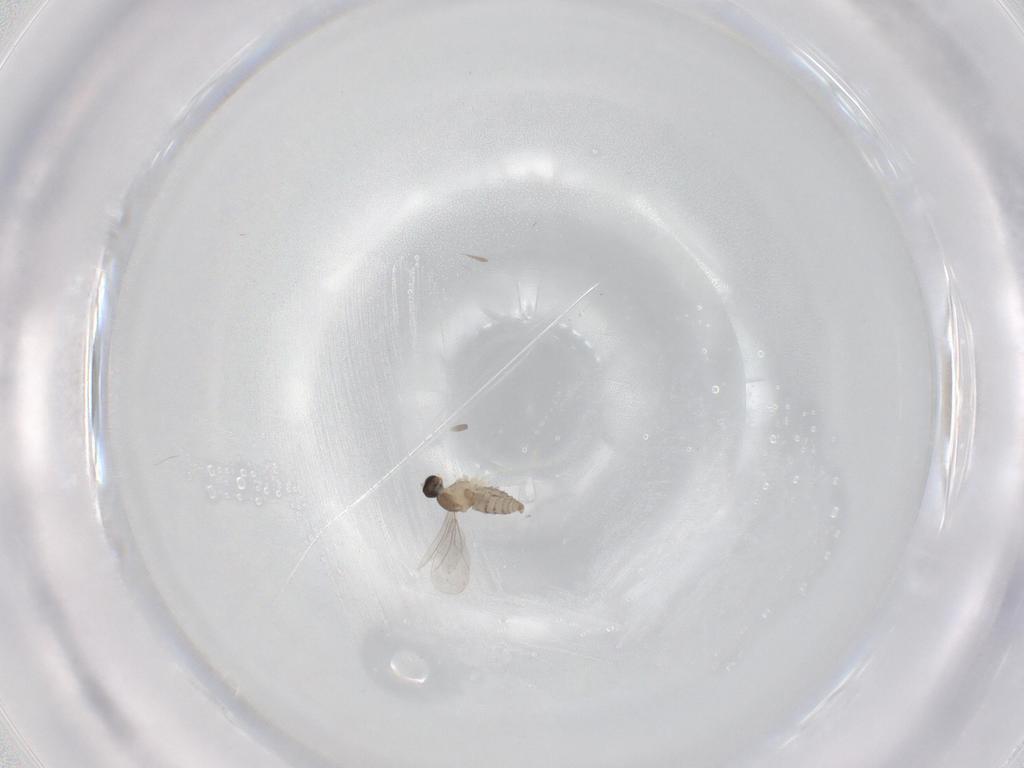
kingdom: Animalia
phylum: Arthropoda
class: Insecta
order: Diptera
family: Cecidomyiidae
